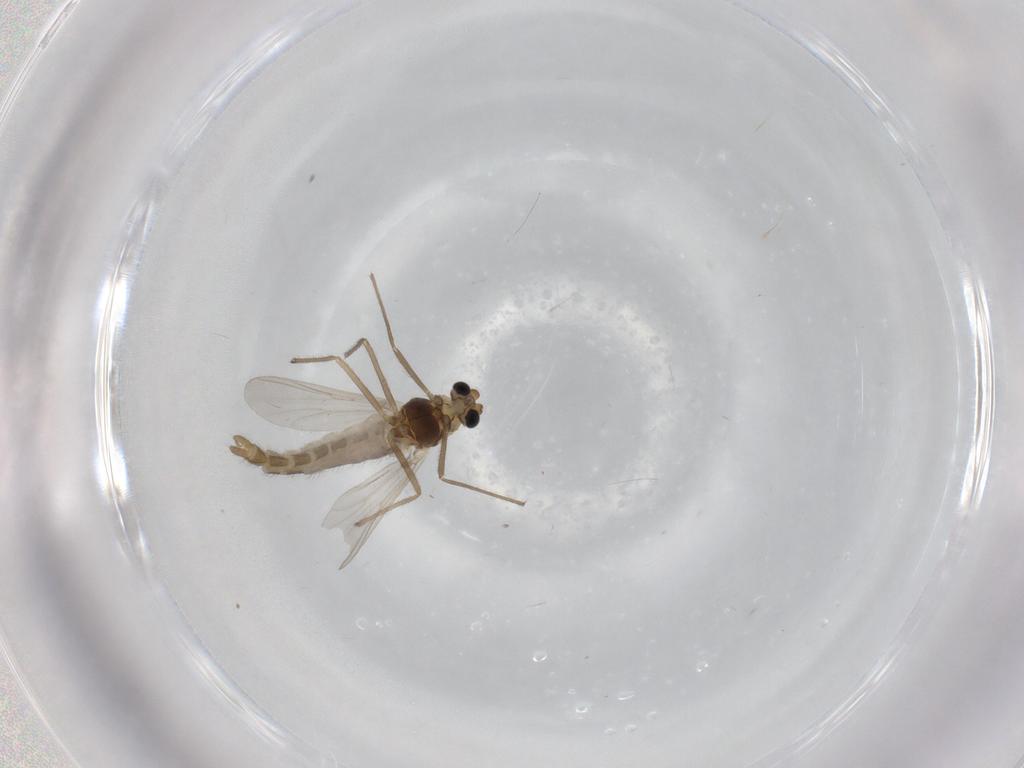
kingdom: Animalia
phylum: Arthropoda
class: Insecta
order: Diptera
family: Chironomidae
